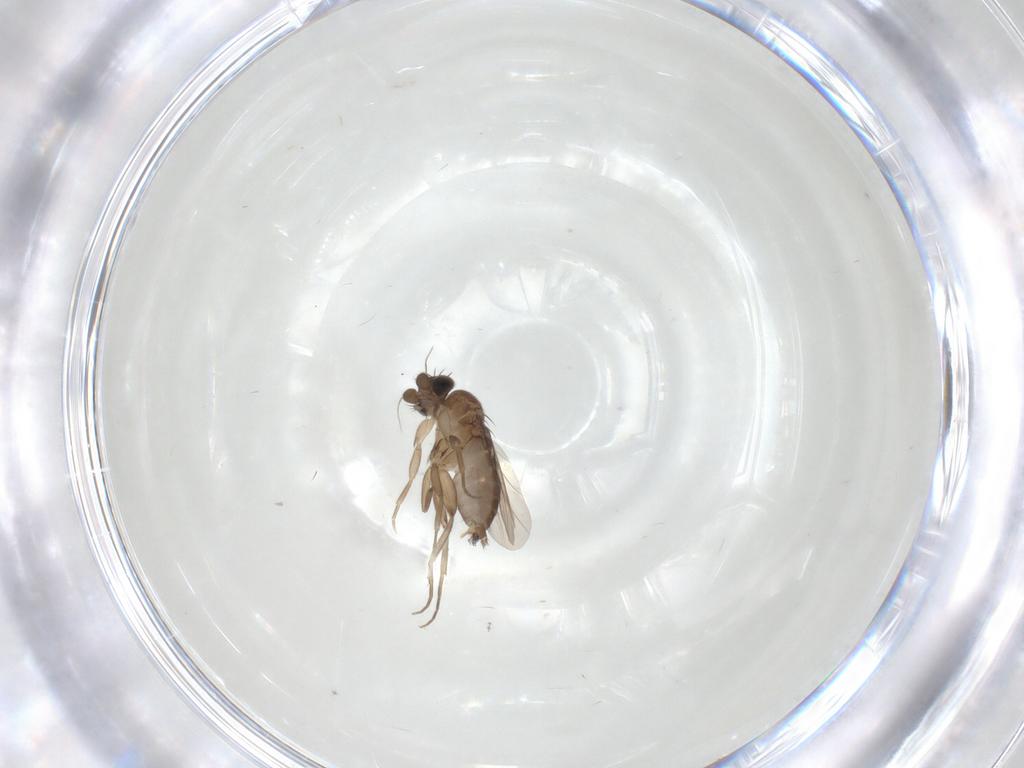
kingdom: Animalia
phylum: Arthropoda
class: Insecta
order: Diptera
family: Phoridae
